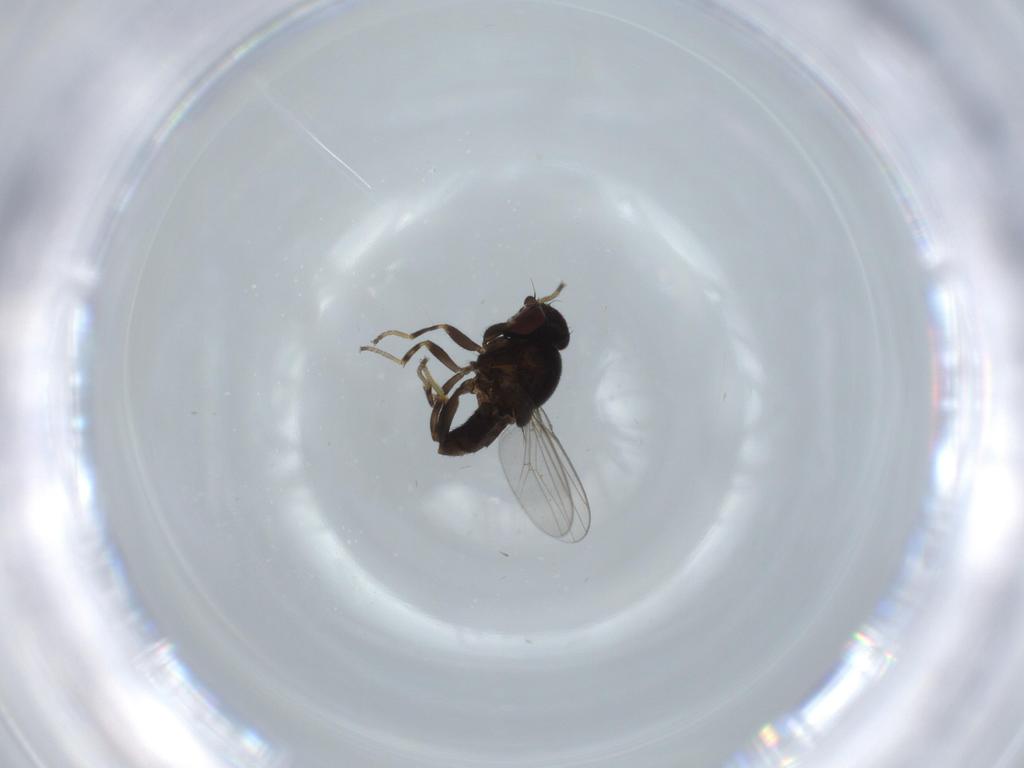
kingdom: Animalia
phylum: Arthropoda
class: Insecta
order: Diptera
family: Chloropidae
